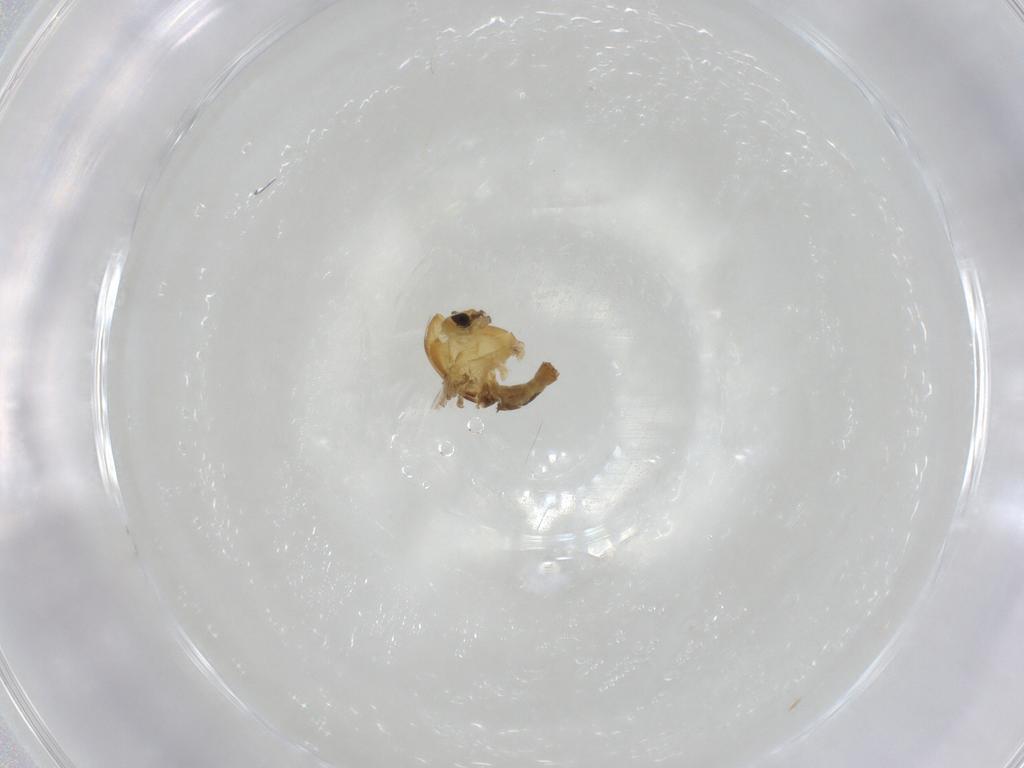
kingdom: Animalia
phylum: Arthropoda
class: Insecta
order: Diptera
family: Chironomidae
